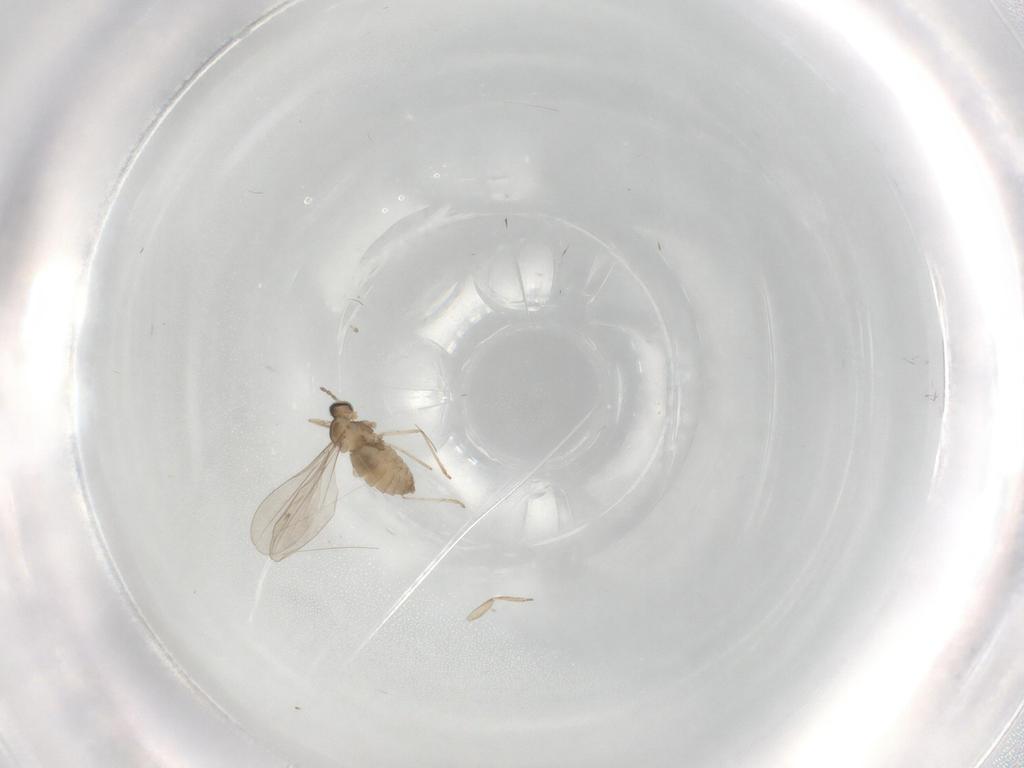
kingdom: Animalia
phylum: Arthropoda
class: Insecta
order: Diptera
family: Cecidomyiidae
